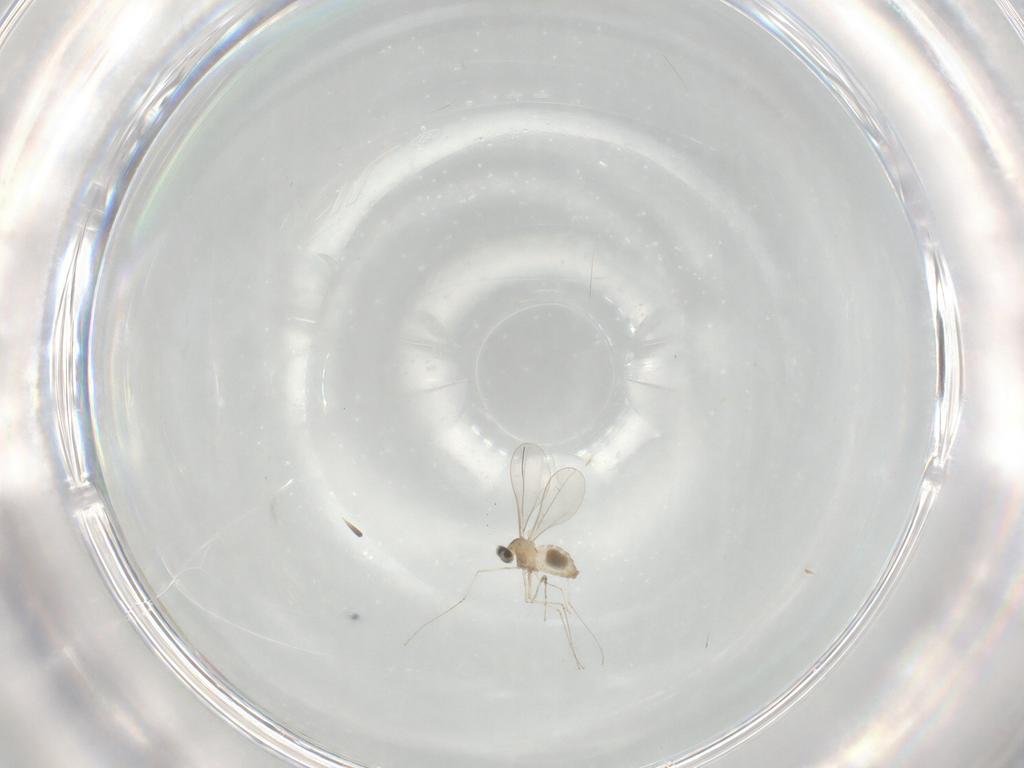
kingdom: Animalia
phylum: Arthropoda
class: Insecta
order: Diptera
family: Cecidomyiidae
